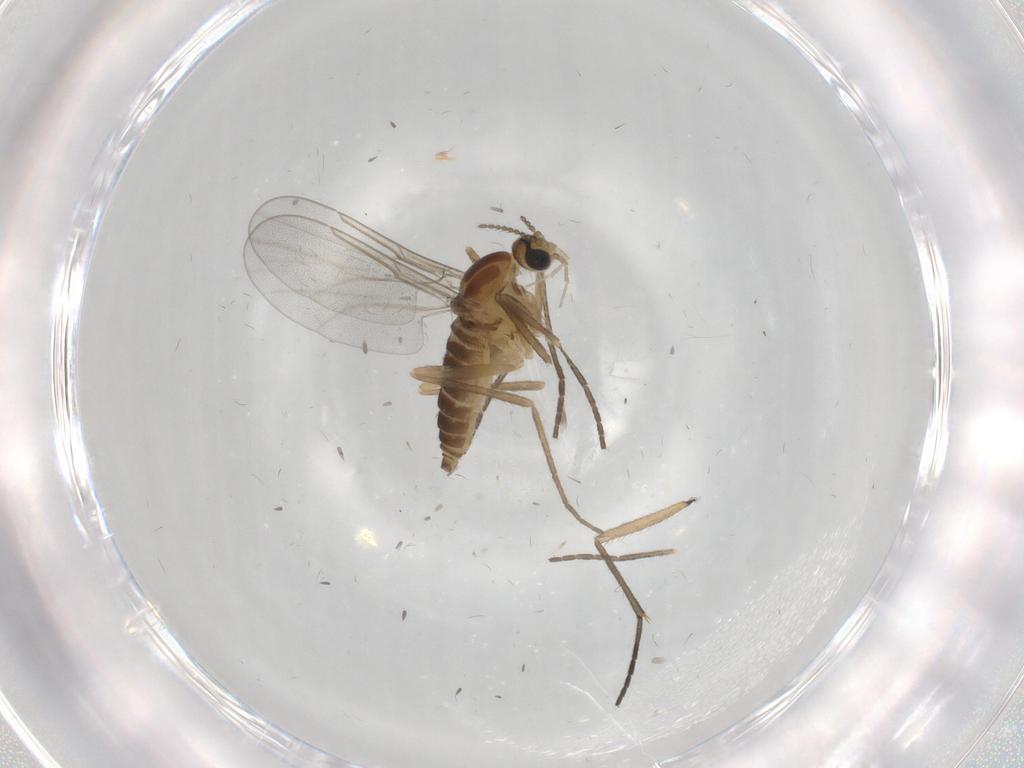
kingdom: Animalia
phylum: Arthropoda
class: Insecta
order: Diptera
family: Cecidomyiidae
